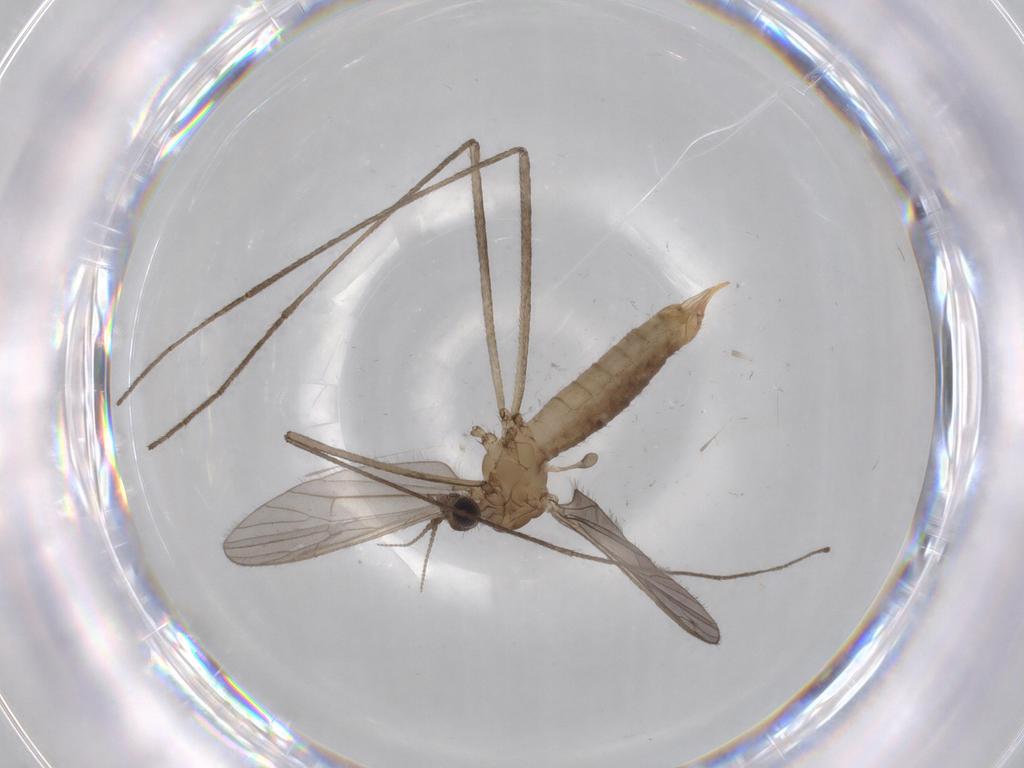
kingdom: Animalia
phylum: Arthropoda
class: Insecta
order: Diptera
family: Limoniidae
